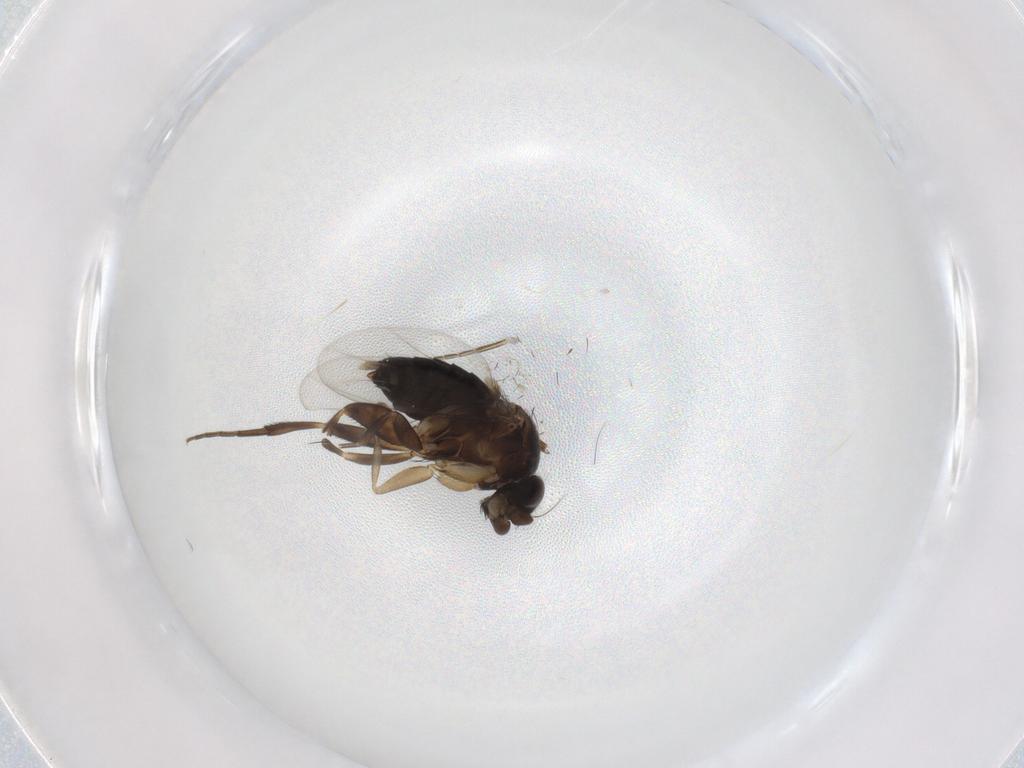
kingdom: Animalia
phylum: Arthropoda
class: Insecta
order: Diptera
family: Phoridae
